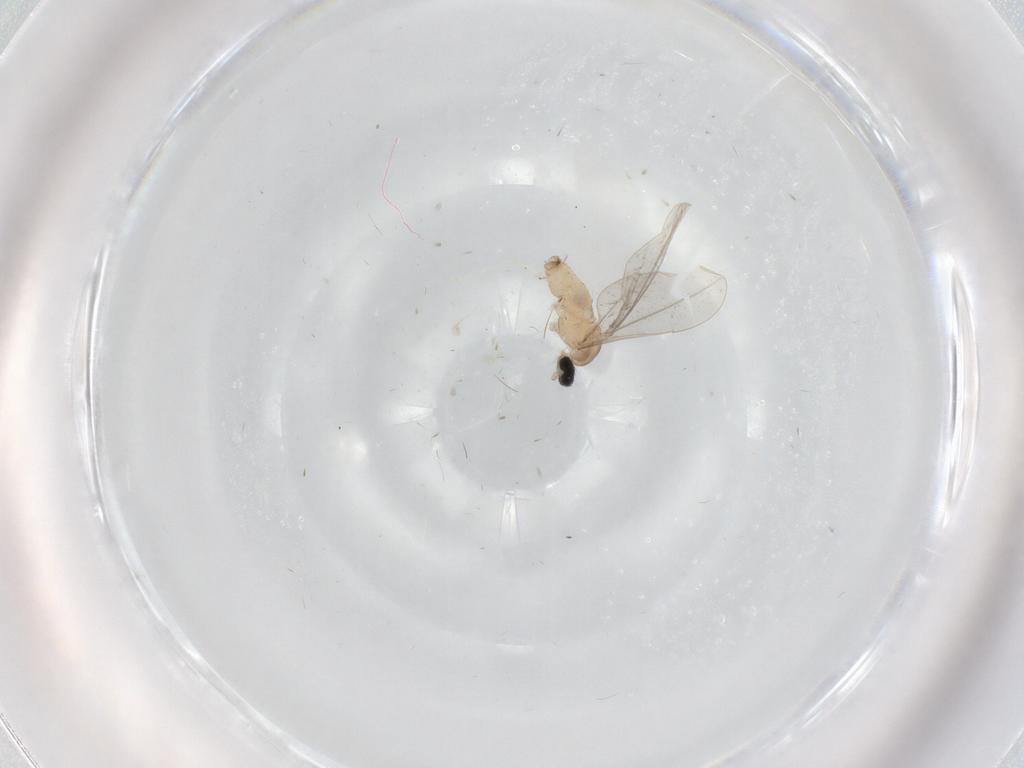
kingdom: Animalia
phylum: Arthropoda
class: Insecta
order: Diptera
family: Cecidomyiidae
